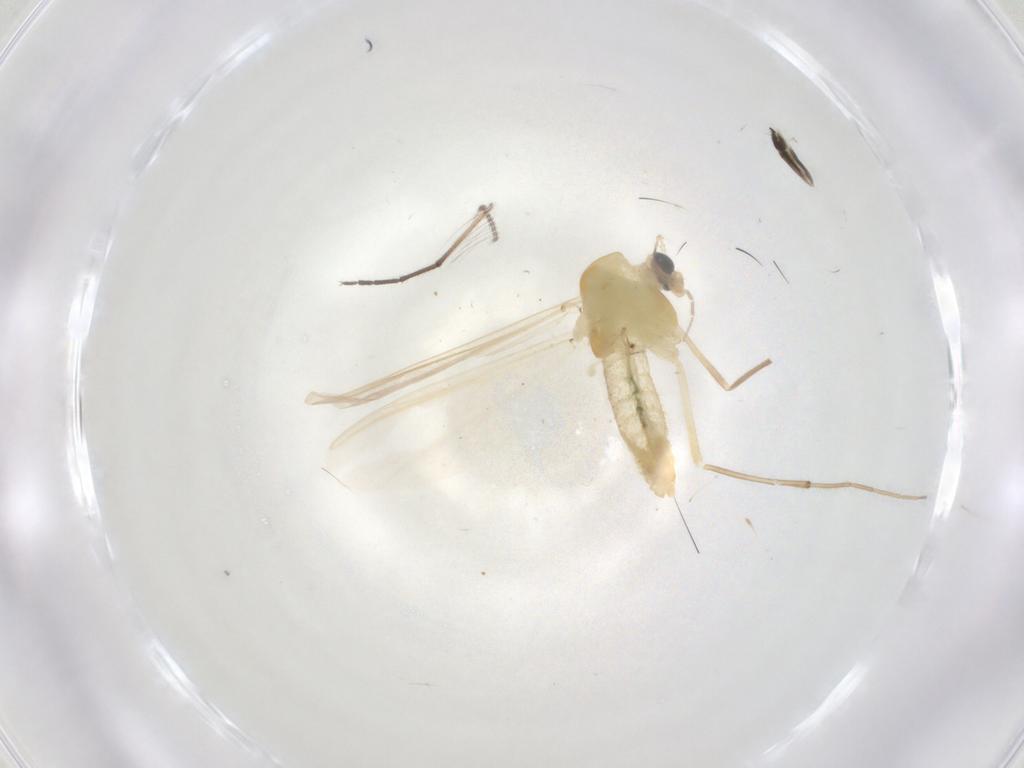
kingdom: Animalia
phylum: Arthropoda
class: Insecta
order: Diptera
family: Chironomidae
